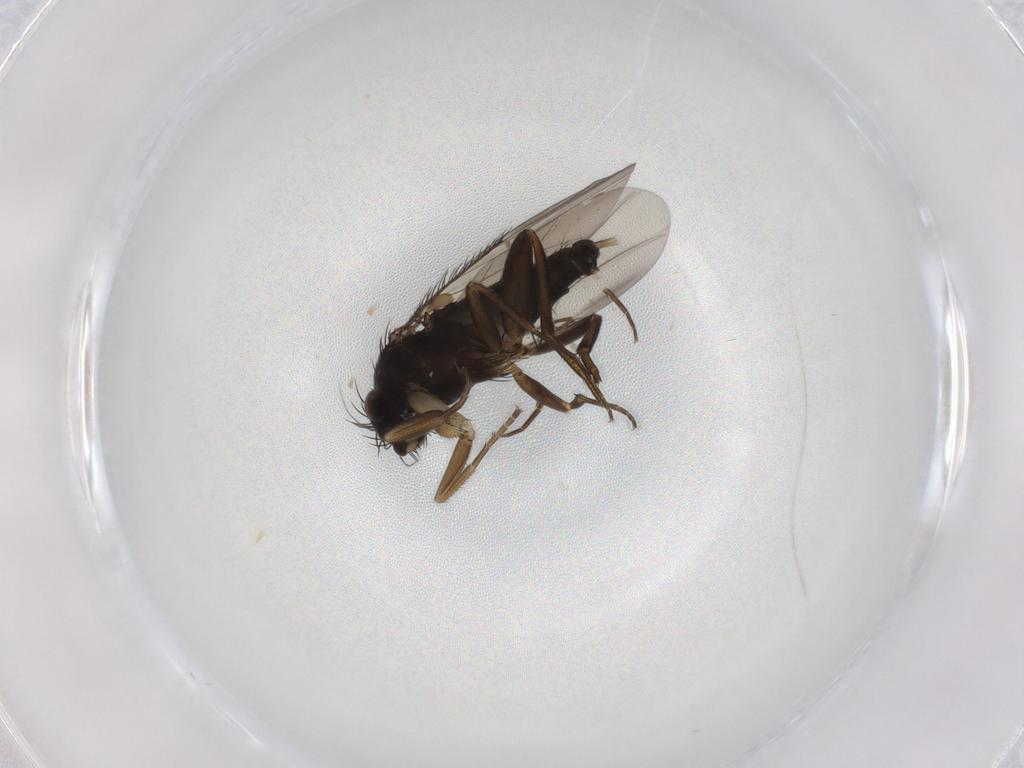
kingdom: Animalia
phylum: Arthropoda
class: Insecta
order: Diptera
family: Phoridae
